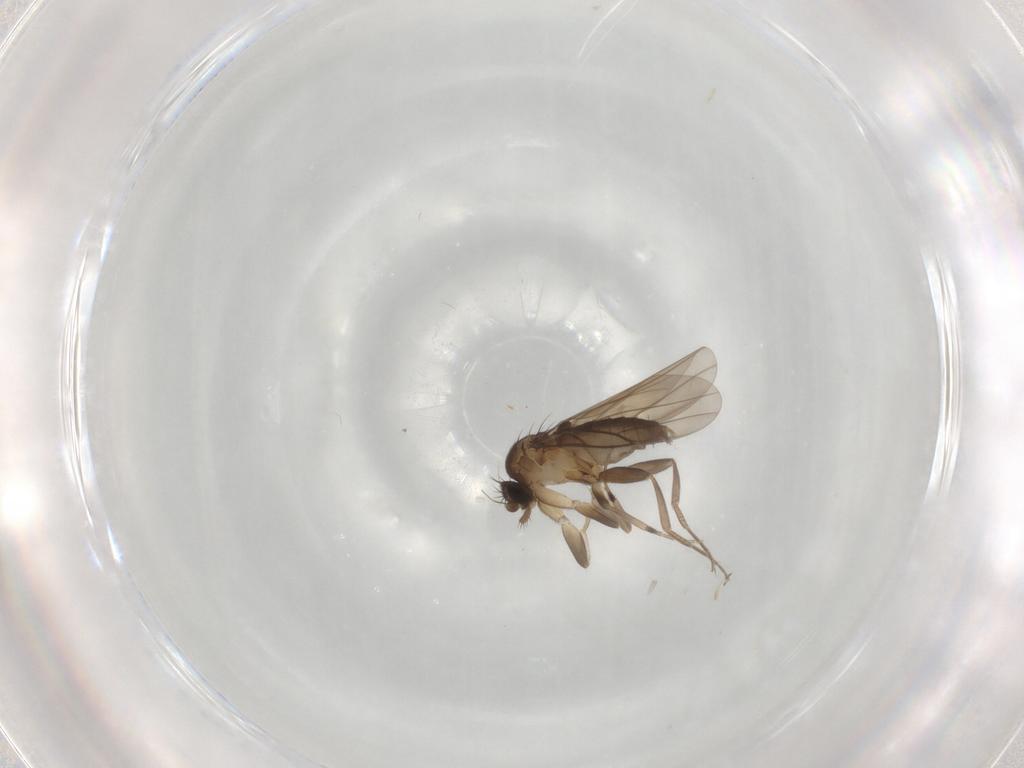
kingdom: Animalia
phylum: Arthropoda
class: Insecta
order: Diptera
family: Phoridae
